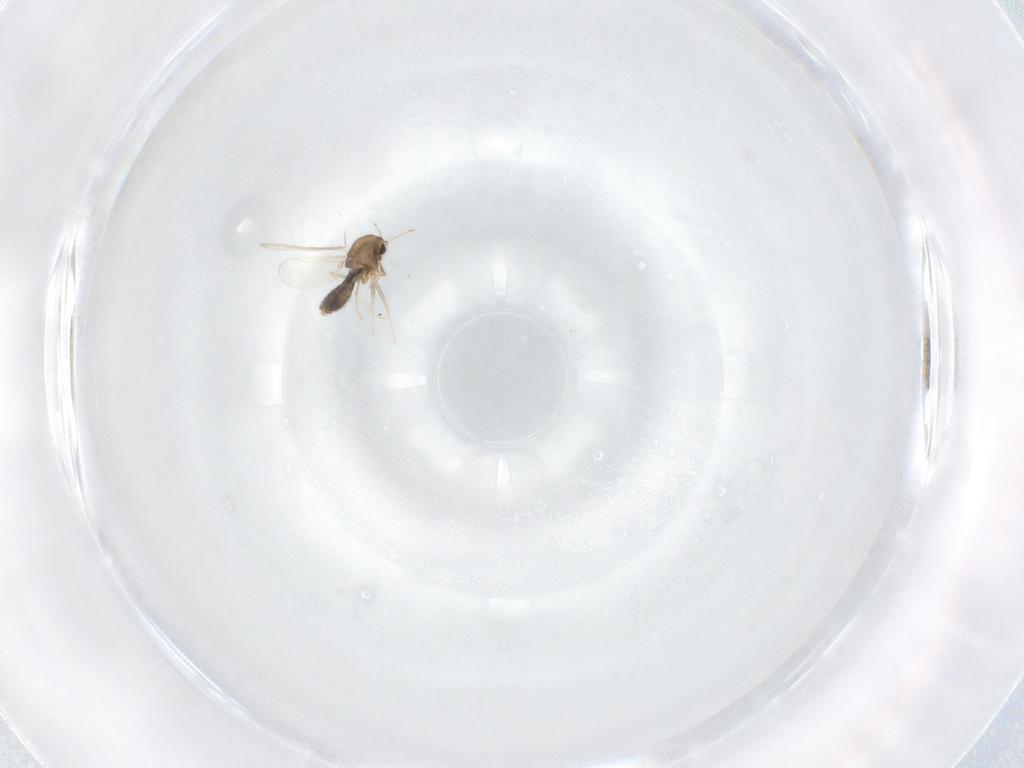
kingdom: Animalia
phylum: Arthropoda
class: Insecta
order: Diptera
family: Chironomidae
